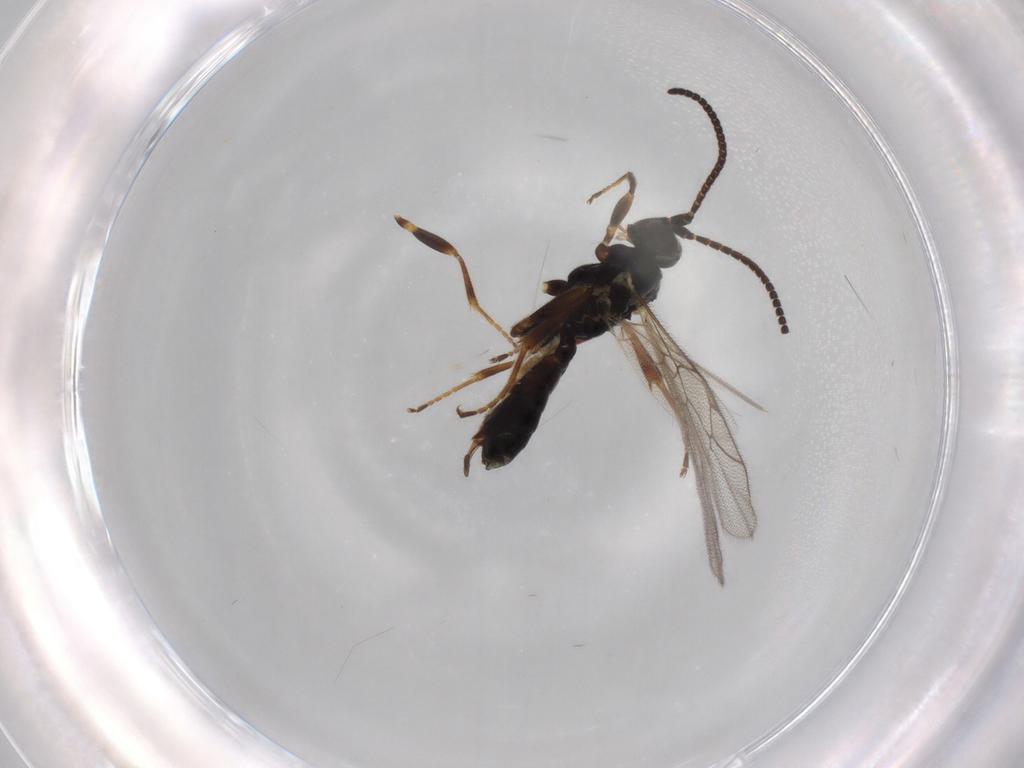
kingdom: Animalia
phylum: Arthropoda
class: Insecta
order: Hymenoptera
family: Ichneumonidae
